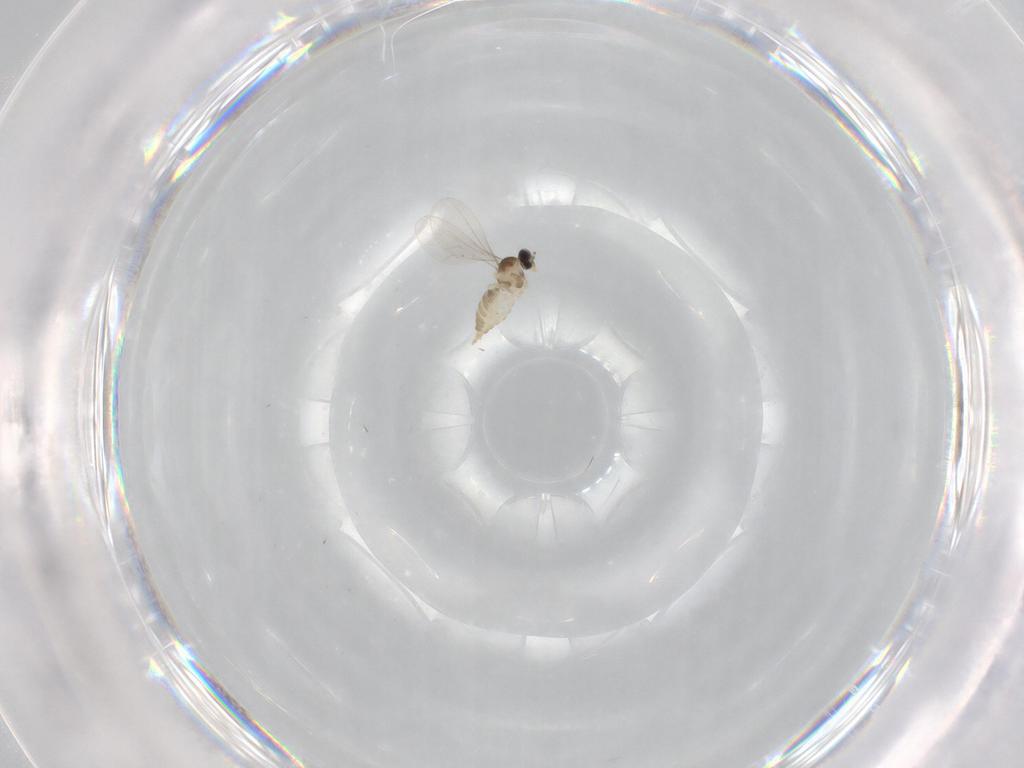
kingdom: Animalia
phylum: Arthropoda
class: Insecta
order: Diptera
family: Cecidomyiidae
